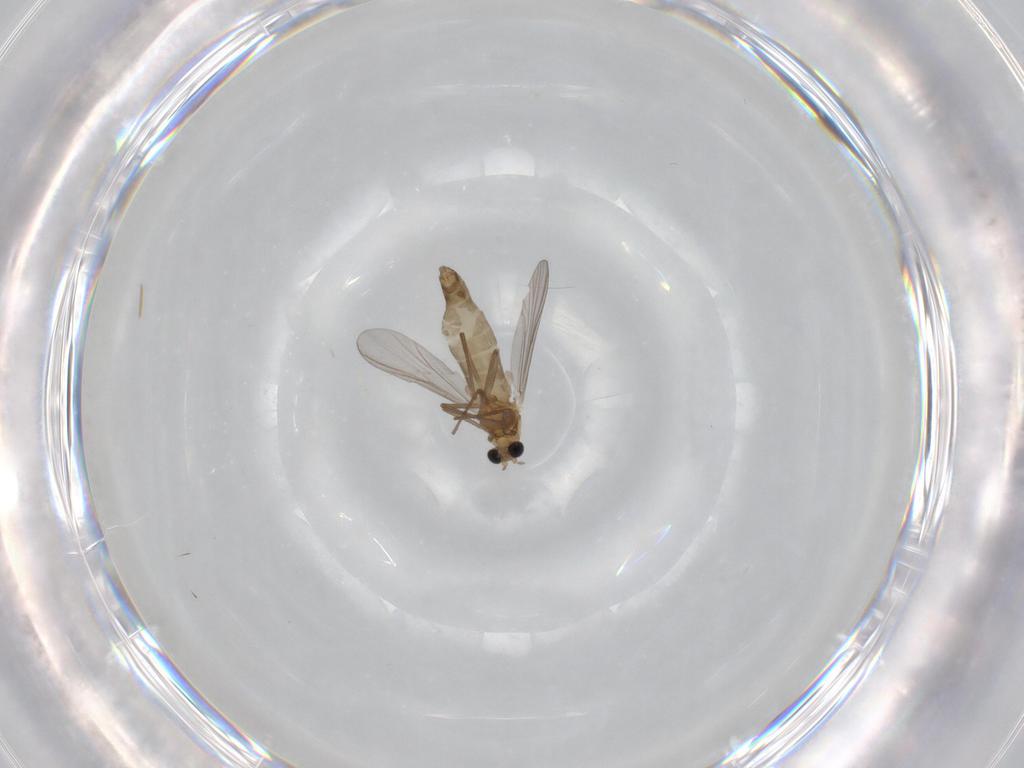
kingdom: Animalia
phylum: Arthropoda
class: Insecta
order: Diptera
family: Chironomidae
